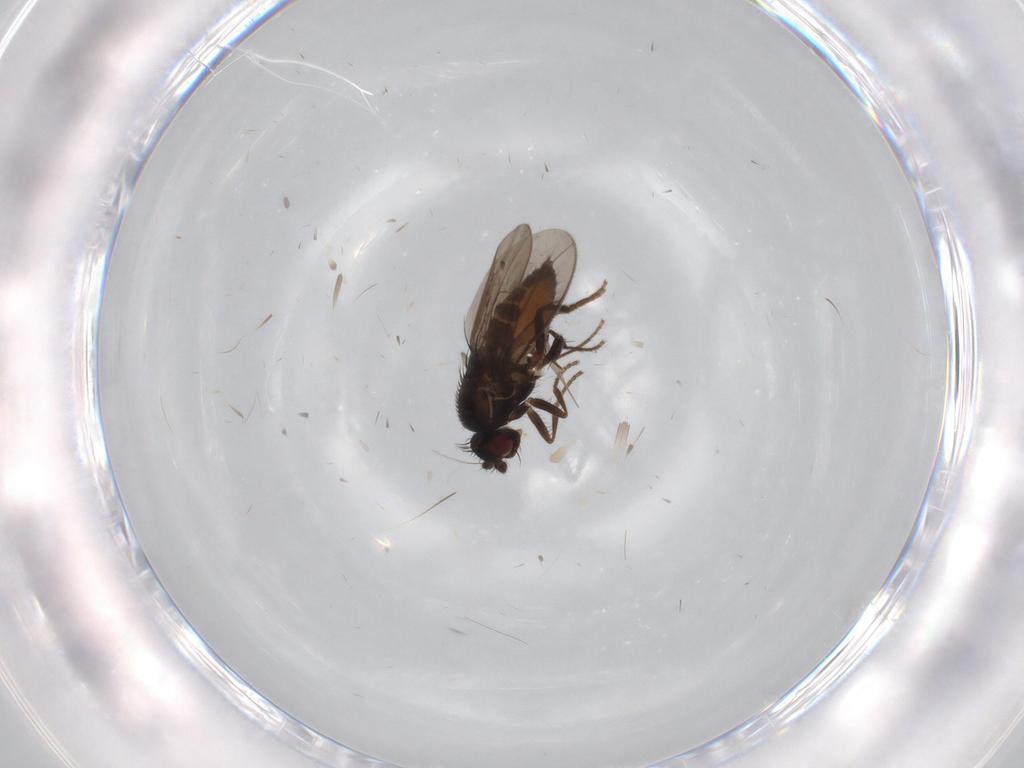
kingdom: Animalia
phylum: Arthropoda
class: Insecta
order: Diptera
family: Sphaeroceridae
